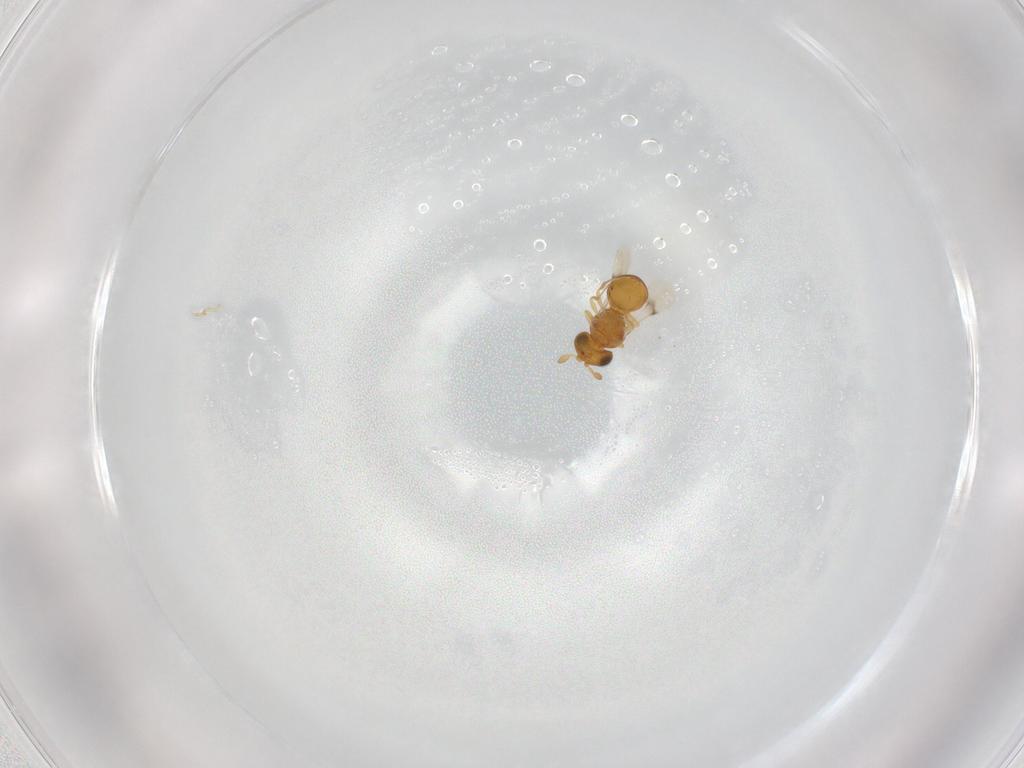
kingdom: Animalia
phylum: Arthropoda
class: Insecta
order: Hymenoptera
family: Scelionidae
